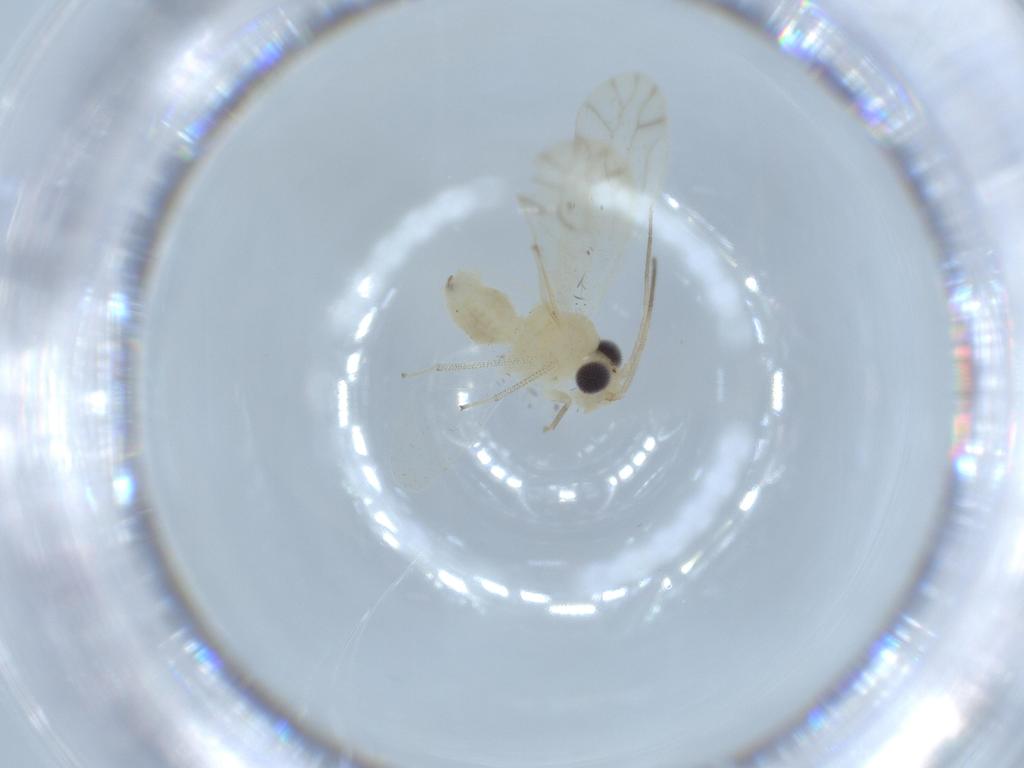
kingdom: Animalia
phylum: Arthropoda
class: Insecta
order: Psocodea
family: Caeciliusidae
